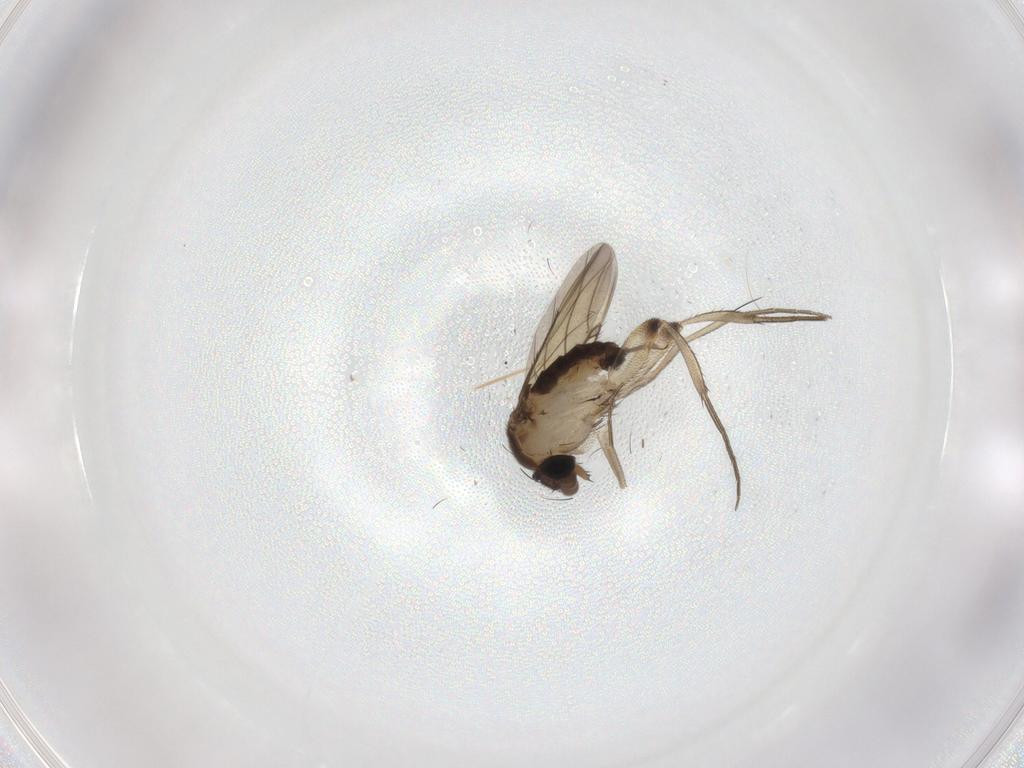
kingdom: Animalia
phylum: Arthropoda
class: Insecta
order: Diptera
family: Phoridae
